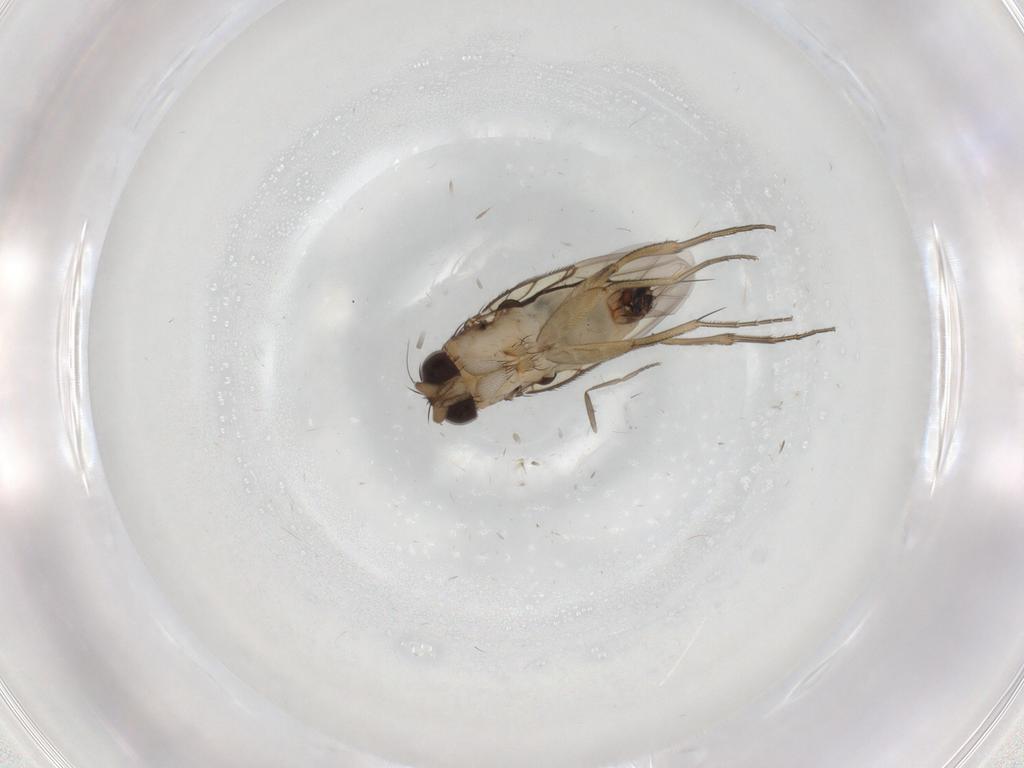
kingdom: Animalia
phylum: Arthropoda
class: Insecta
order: Diptera
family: Phoridae
